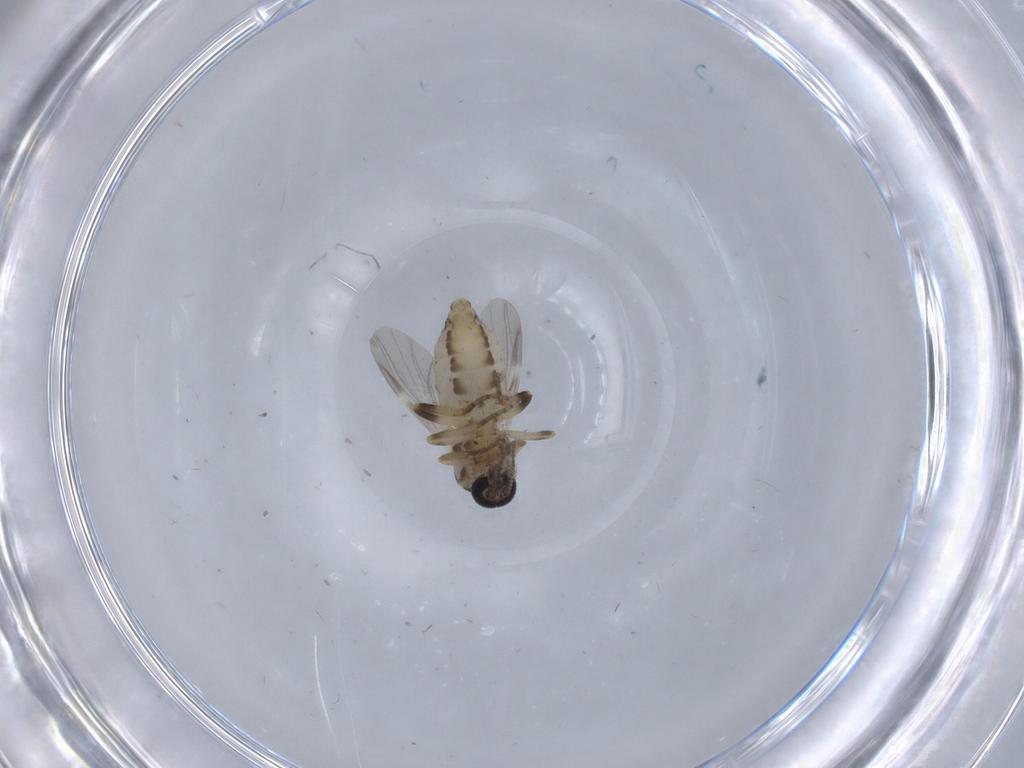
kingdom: Animalia
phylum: Arthropoda
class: Insecta
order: Diptera
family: Ceratopogonidae
